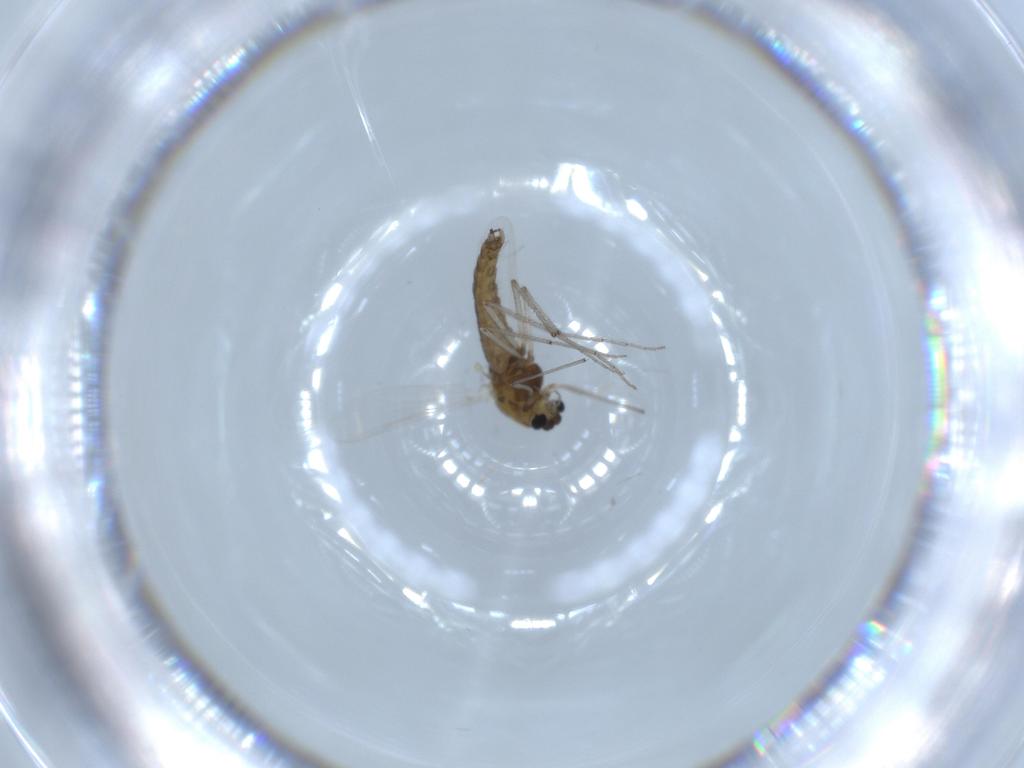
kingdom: Animalia
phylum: Arthropoda
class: Insecta
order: Diptera
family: Chironomidae
